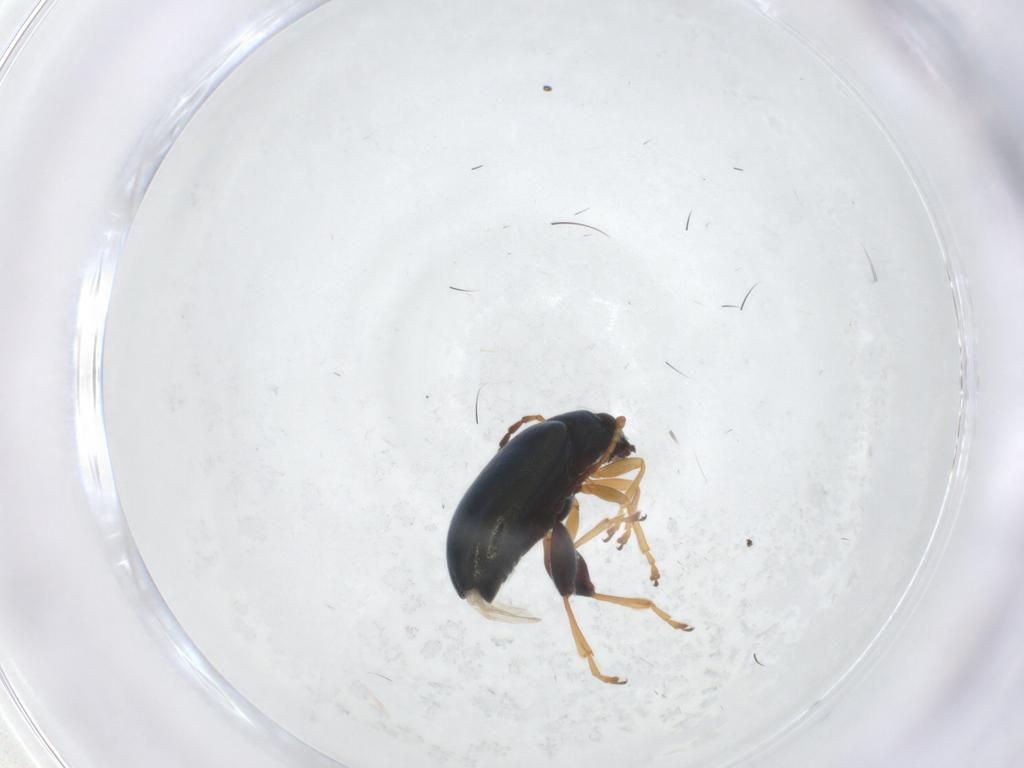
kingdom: Animalia
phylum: Arthropoda
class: Insecta
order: Coleoptera
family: Chrysomelidae
